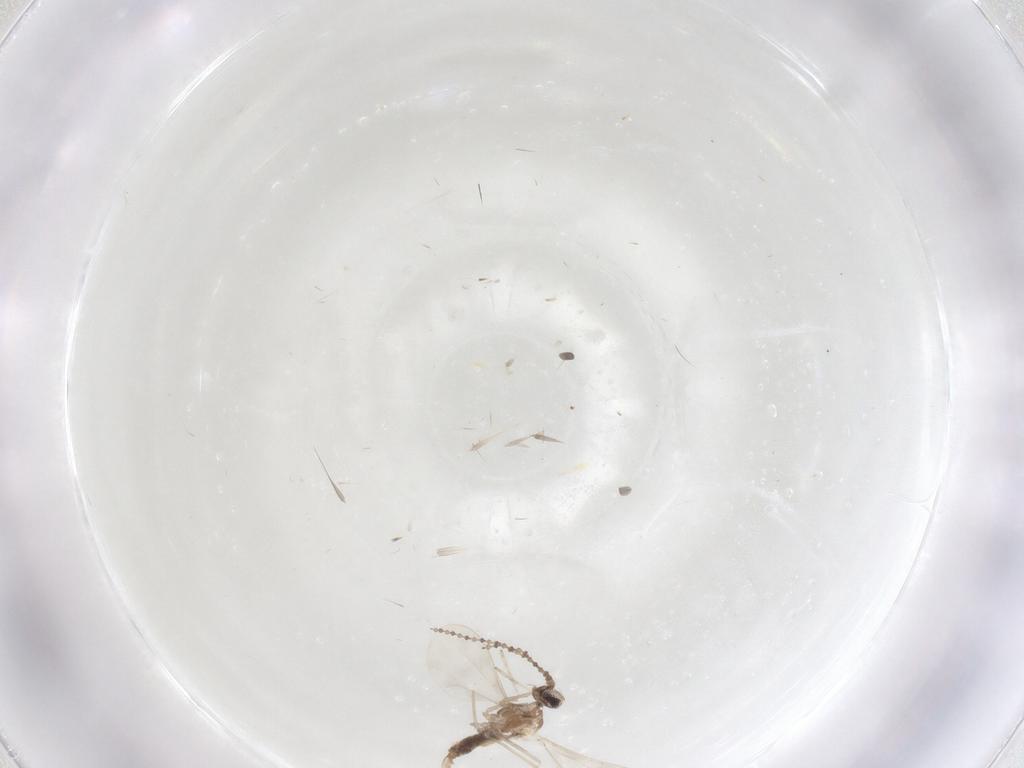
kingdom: Animalia
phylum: Arthropoda
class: Insecta
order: Diptera
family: Cecidomyiidae
